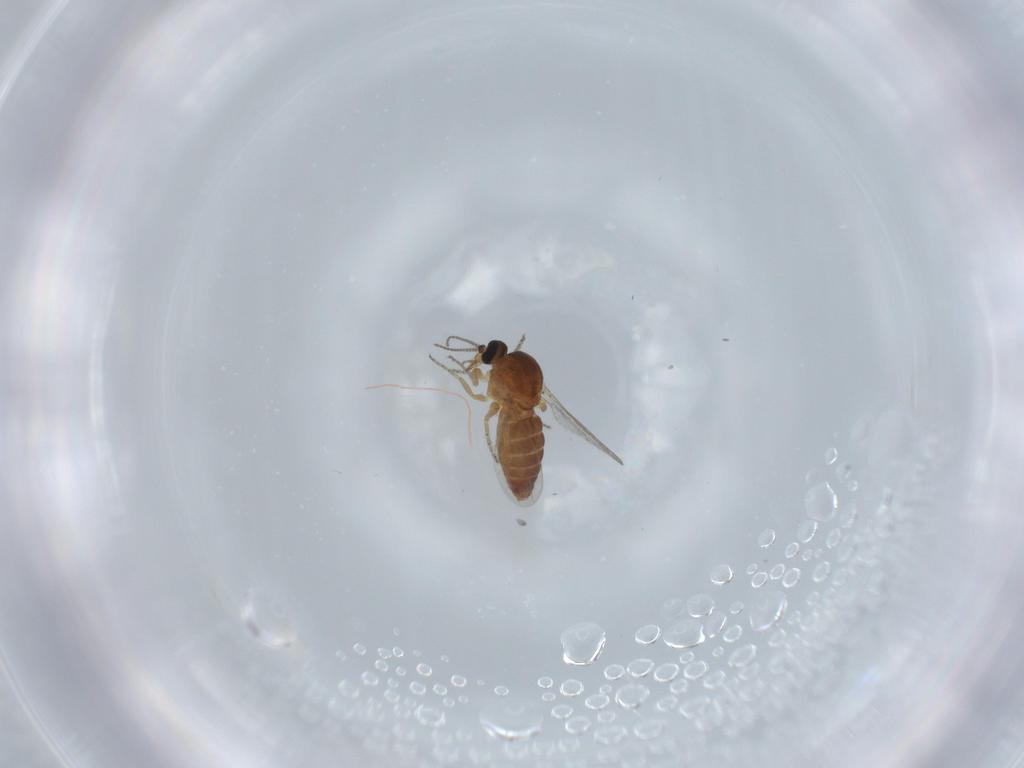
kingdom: Animalia
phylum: Arthropoda
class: Insecta
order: Diptera
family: Ceratopogonidae
